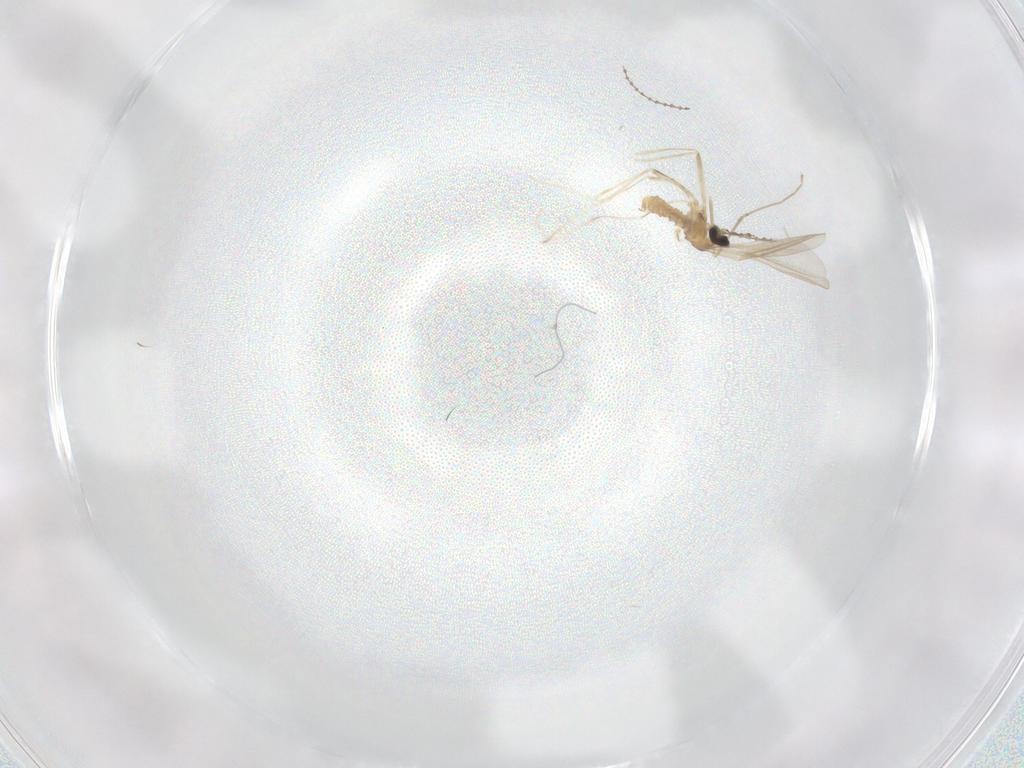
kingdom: Animalia
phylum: Arthropoda
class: Insecta
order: Diptera
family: Cecidomyiidae
